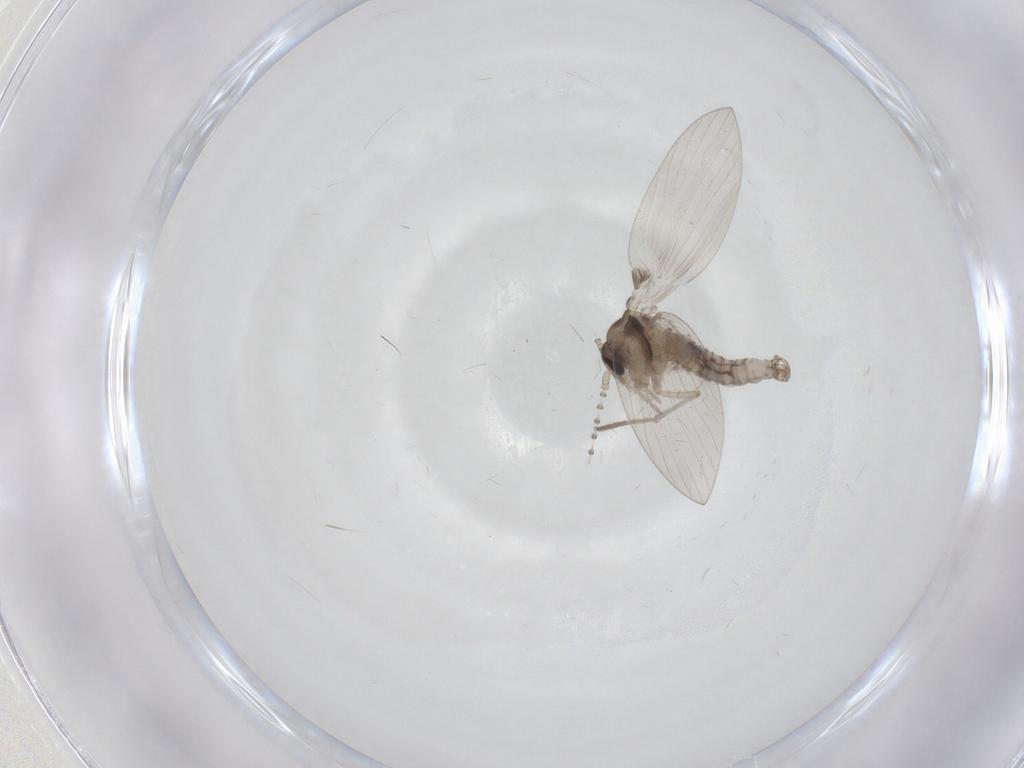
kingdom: Animalia
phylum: Arthropoda
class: Insecta
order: Diptera
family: Psychodidae
